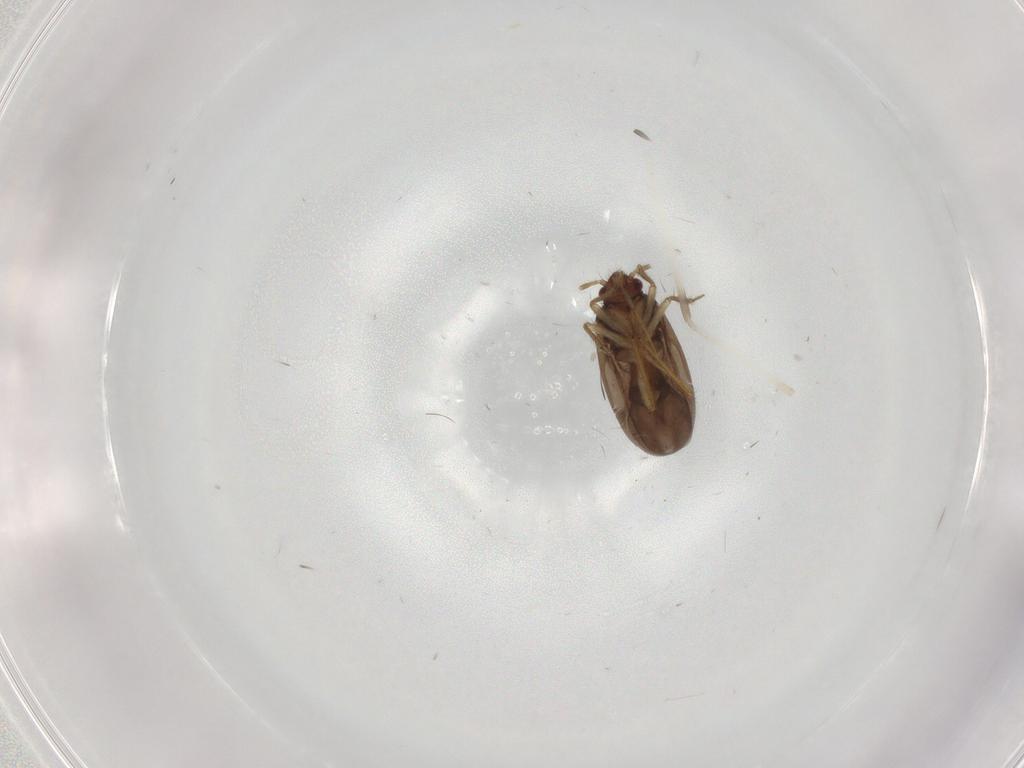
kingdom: Animalia
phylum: Arthropoda
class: Insecta
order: Hemiptera
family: Ceratocombidae
